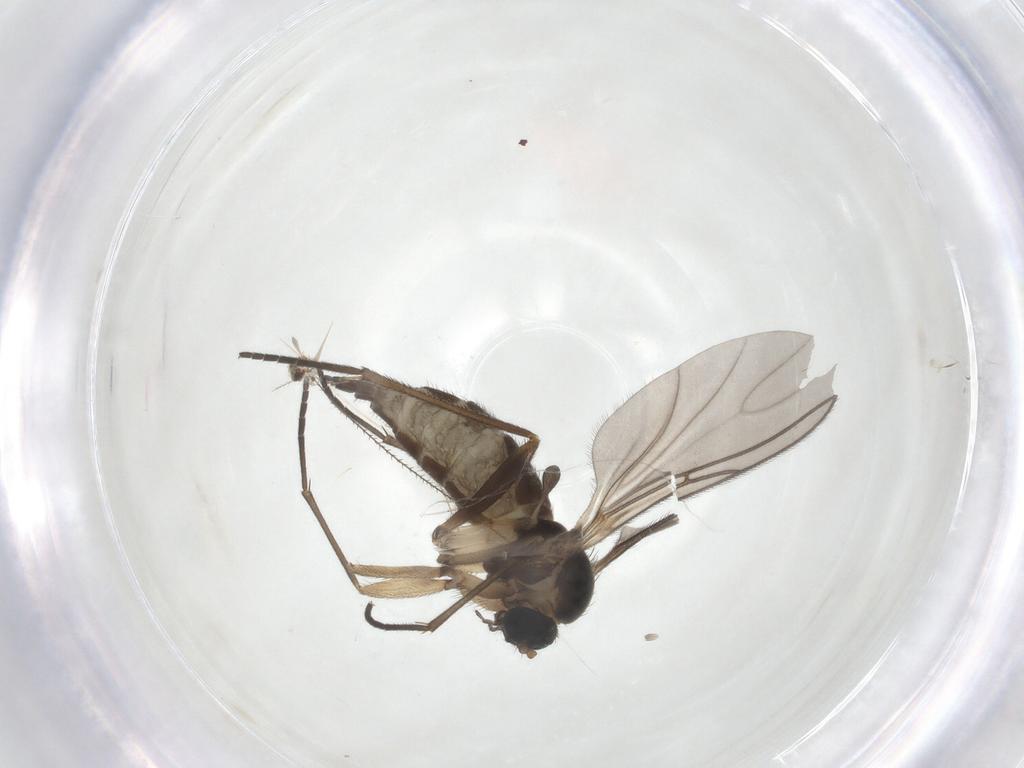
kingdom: Animalia
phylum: Arthropoda
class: Insecta
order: Diptera
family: Sciaridae
